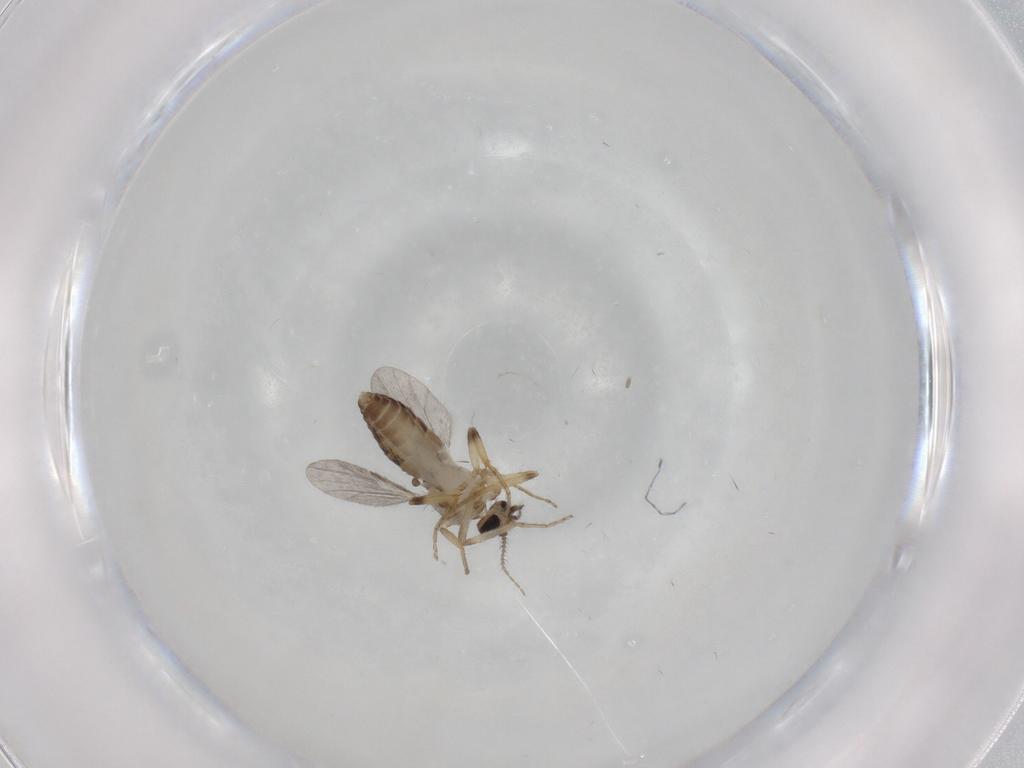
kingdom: Animalia
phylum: Arthropoda
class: Insecta
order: Diptera
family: Ceratopogonidae
